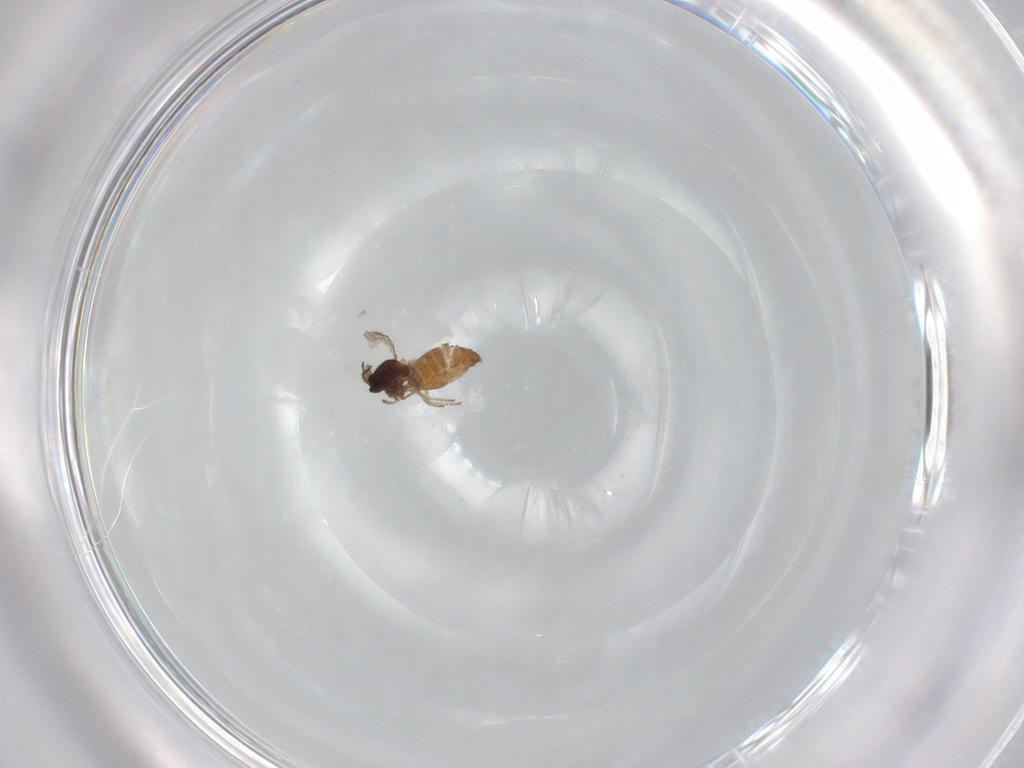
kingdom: Animalia
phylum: Arthropoda
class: Insecta
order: Diptera
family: Ceratopogonidae
